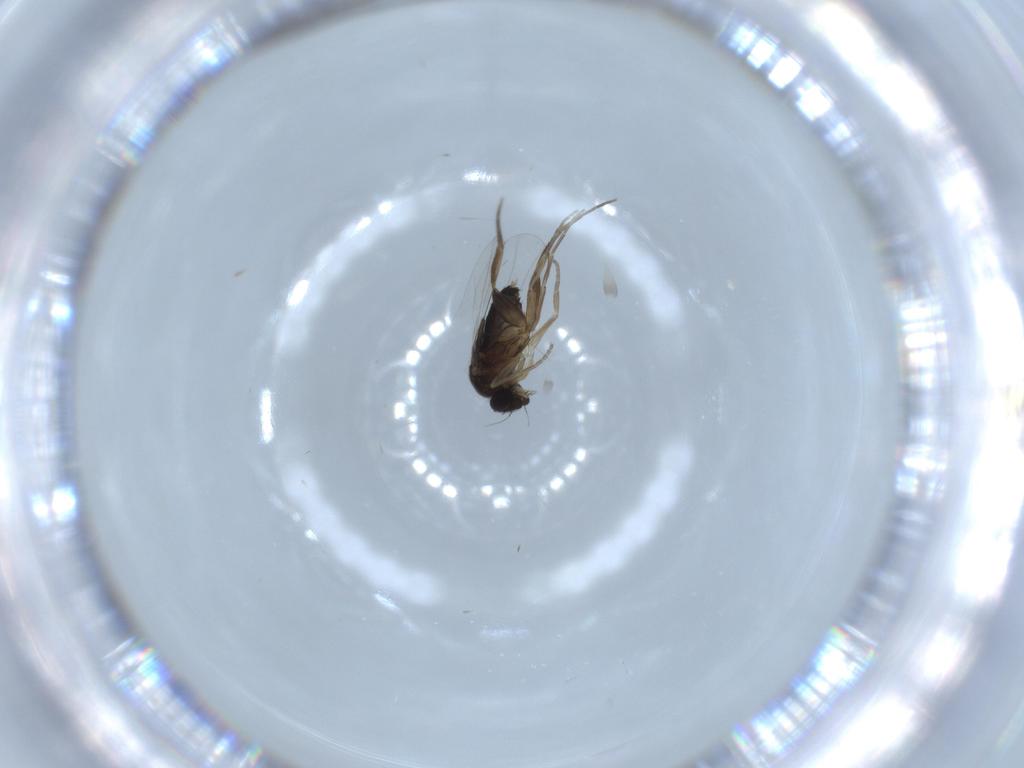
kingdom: Animalia
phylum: Arthropoda
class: Insecta
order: Diptera
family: Phoridae
